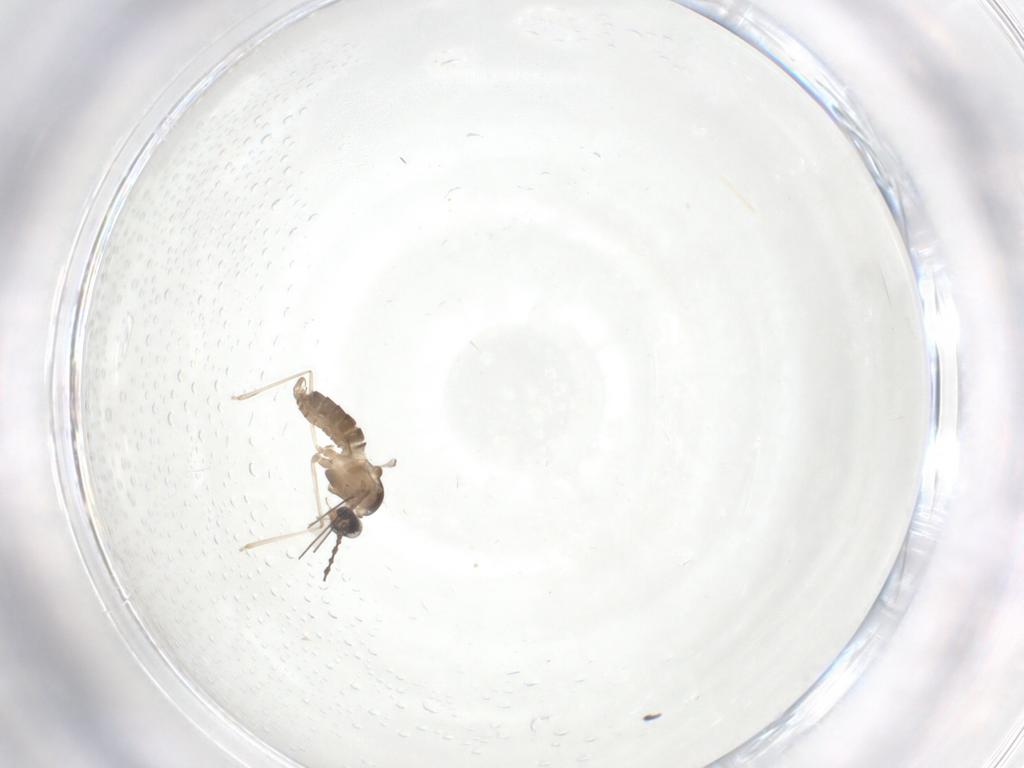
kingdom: Animalia
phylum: Arthropoda
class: Insecta
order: Diptera
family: Cecidomyiidae
